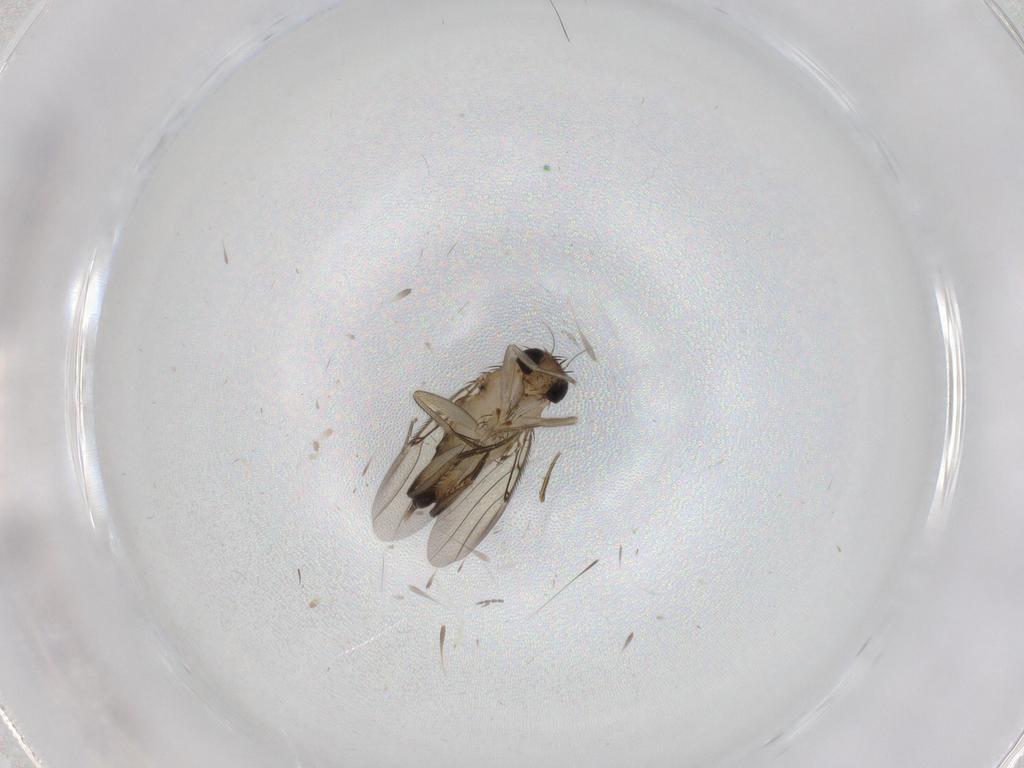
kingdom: Animalia
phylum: Arthropoda
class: Insecta
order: Diptera
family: Phoridae
